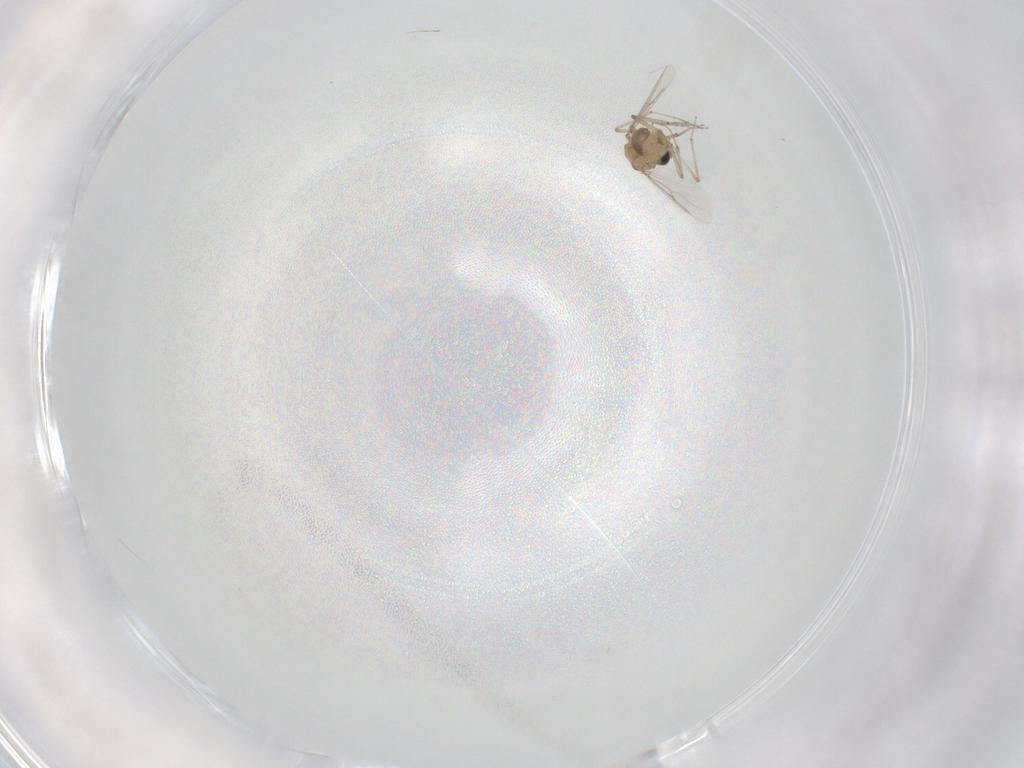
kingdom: Animalia
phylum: Arthropoda
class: Insecta
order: Diptera
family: Ceratopogonidae
